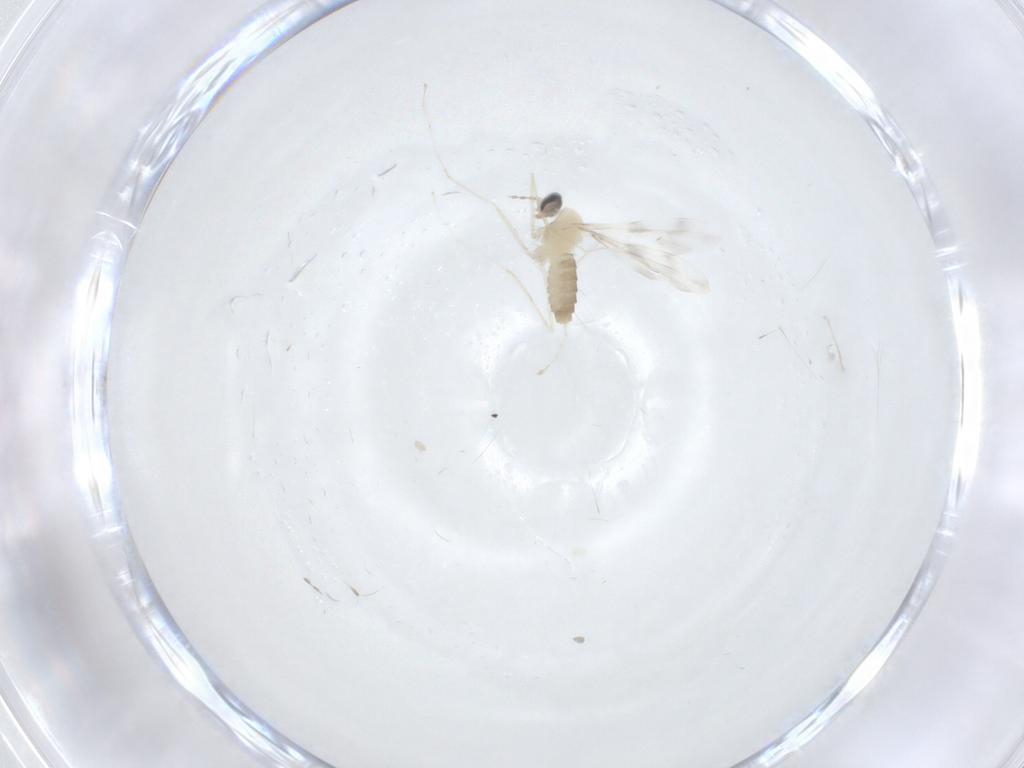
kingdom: Animalia
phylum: Arthropoda
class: Insecta
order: Diptera
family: Cecidomyiidae
